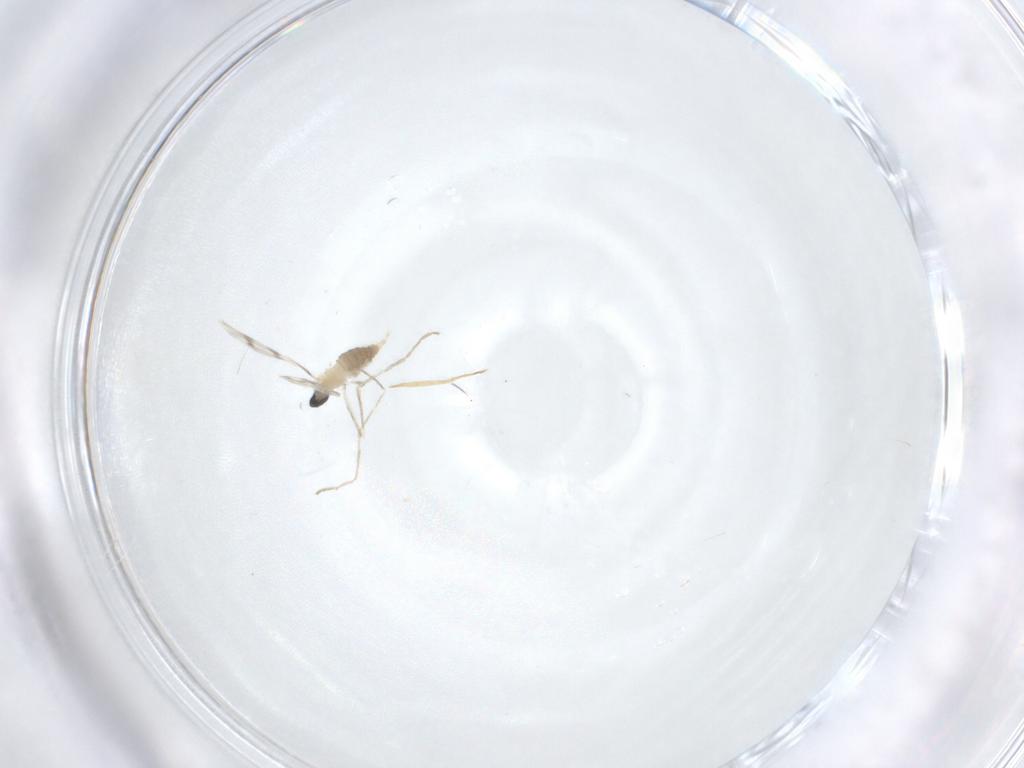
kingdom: Animalia
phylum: Arthropoda
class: Insecta
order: Diptera
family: Cecidomyiidae
